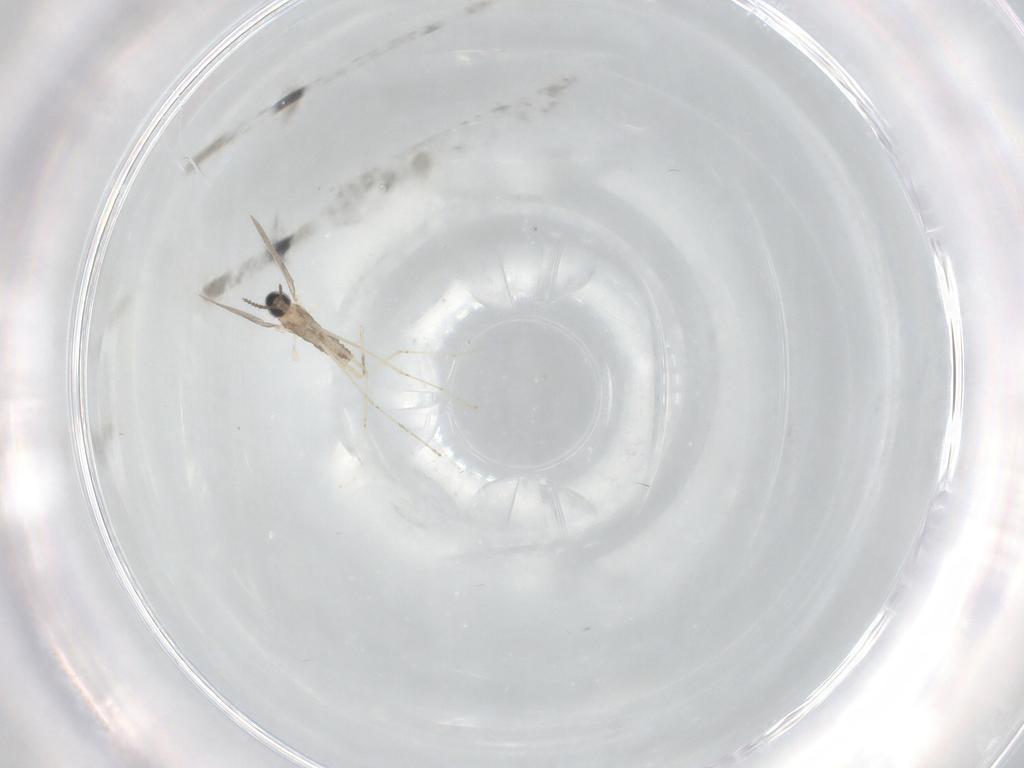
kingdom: Animalia
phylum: Arthropoda
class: Insecta
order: Diptera
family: Cecidomyiidae
